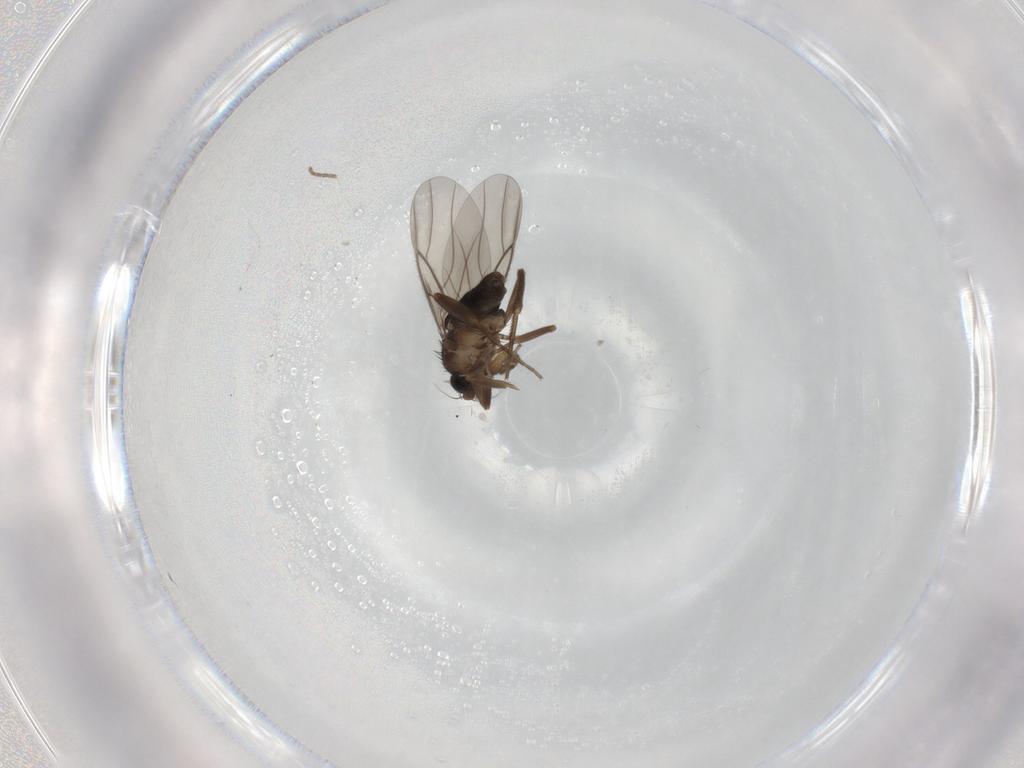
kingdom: Animalia
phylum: Arthropoda
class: Insecta
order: Diptera
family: Phoridae
